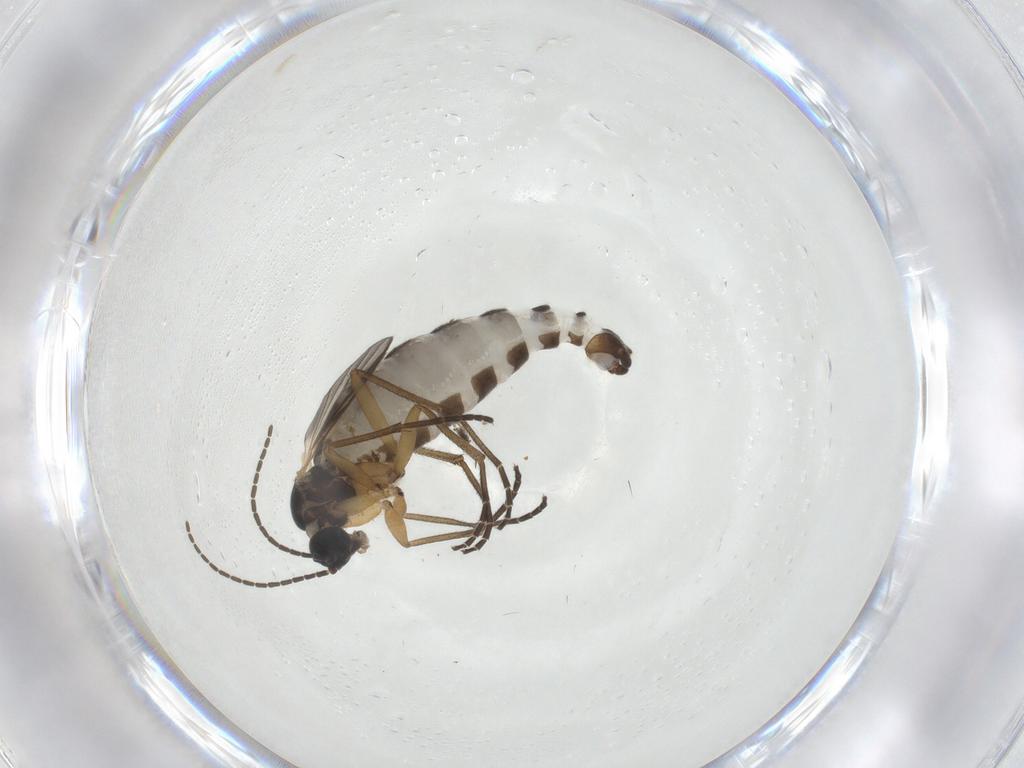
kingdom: Animalia
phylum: Arthropoda
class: Insecta
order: Diptera
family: Sciaridae
